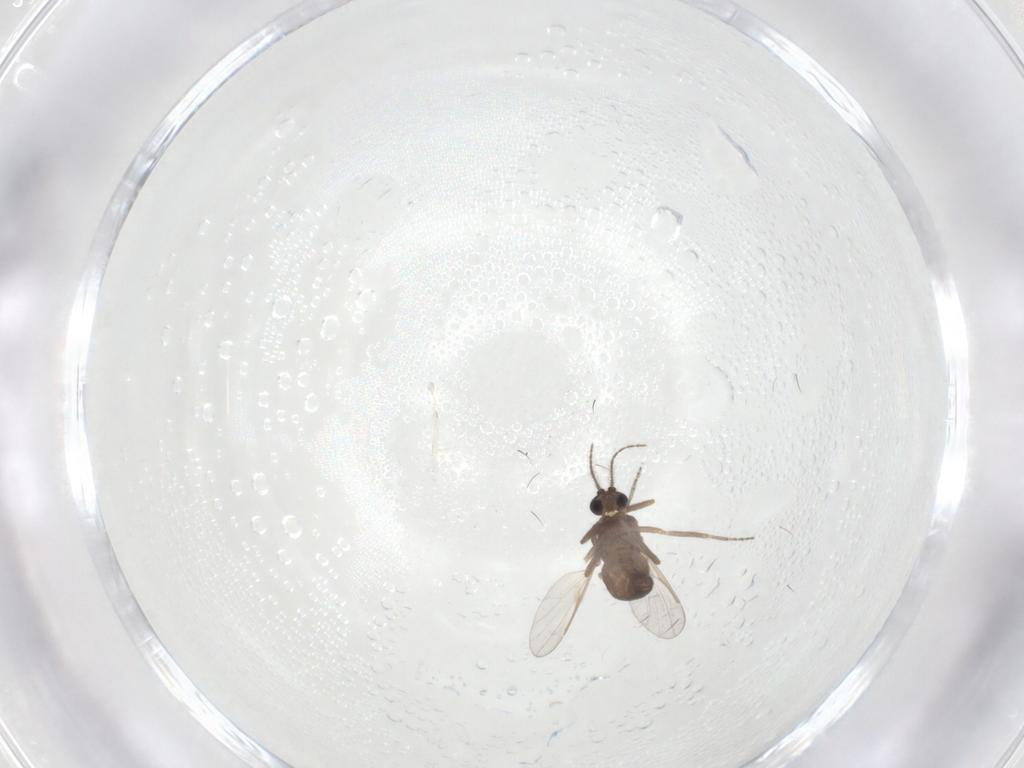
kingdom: Animalia
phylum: Arthropoda
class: Insecta
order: Diptera
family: Ceratopogonidae
